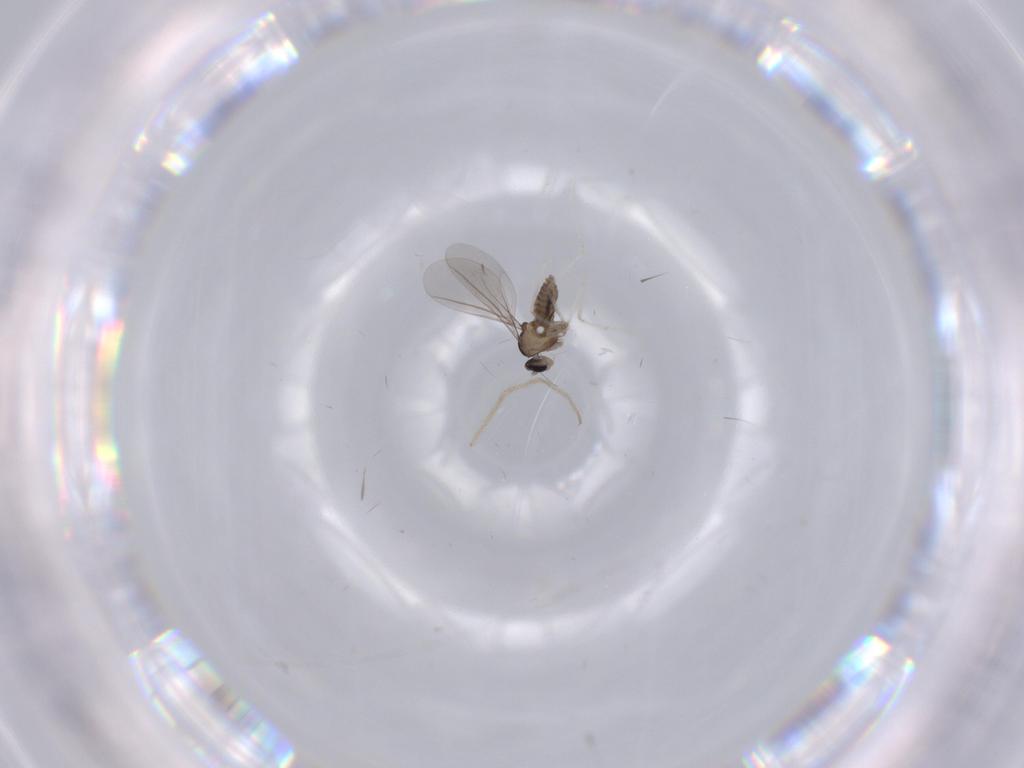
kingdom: Animalia
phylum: Arthropoda
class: Insecta
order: Diptera
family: Cecidomyiidae
